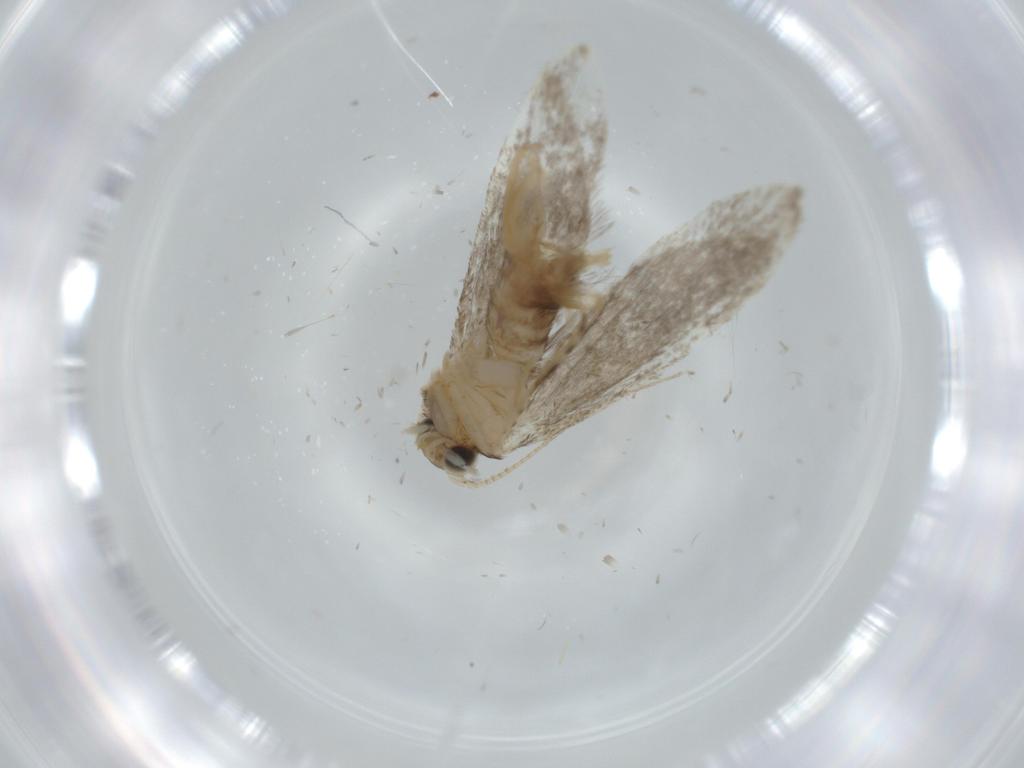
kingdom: Animalia
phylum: Arthropoda
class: Insecta
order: Lepidoptera
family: Tineidae
